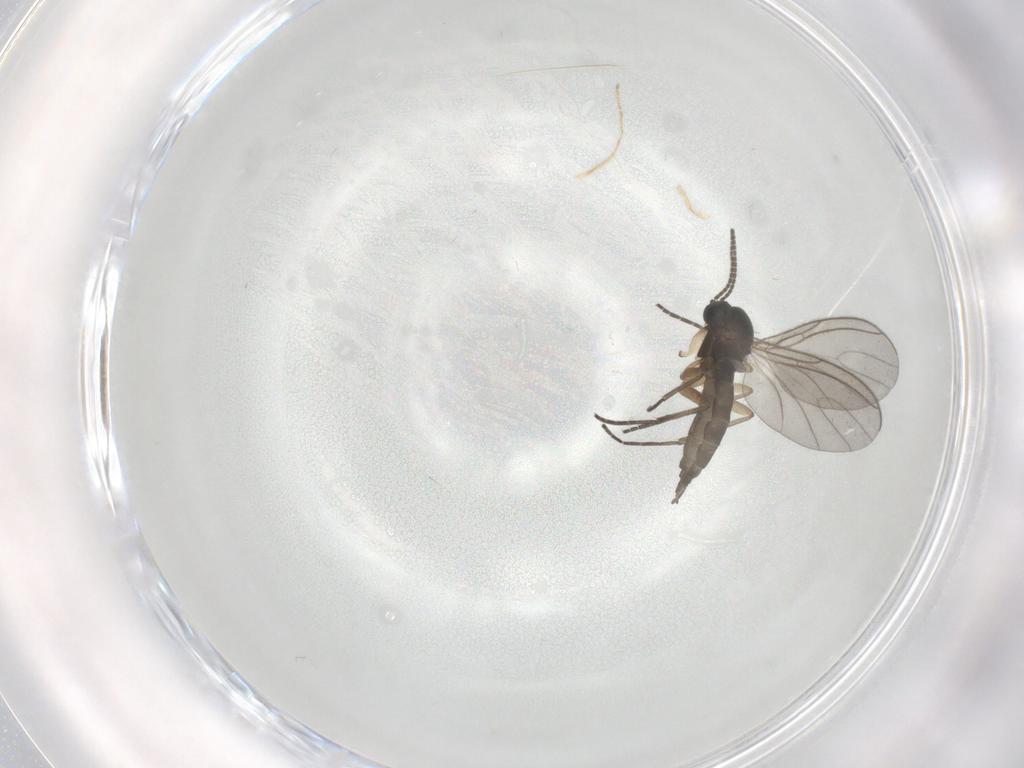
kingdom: Animalia
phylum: Arthropoda
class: Insecta
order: Diptera
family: Sciaridae
